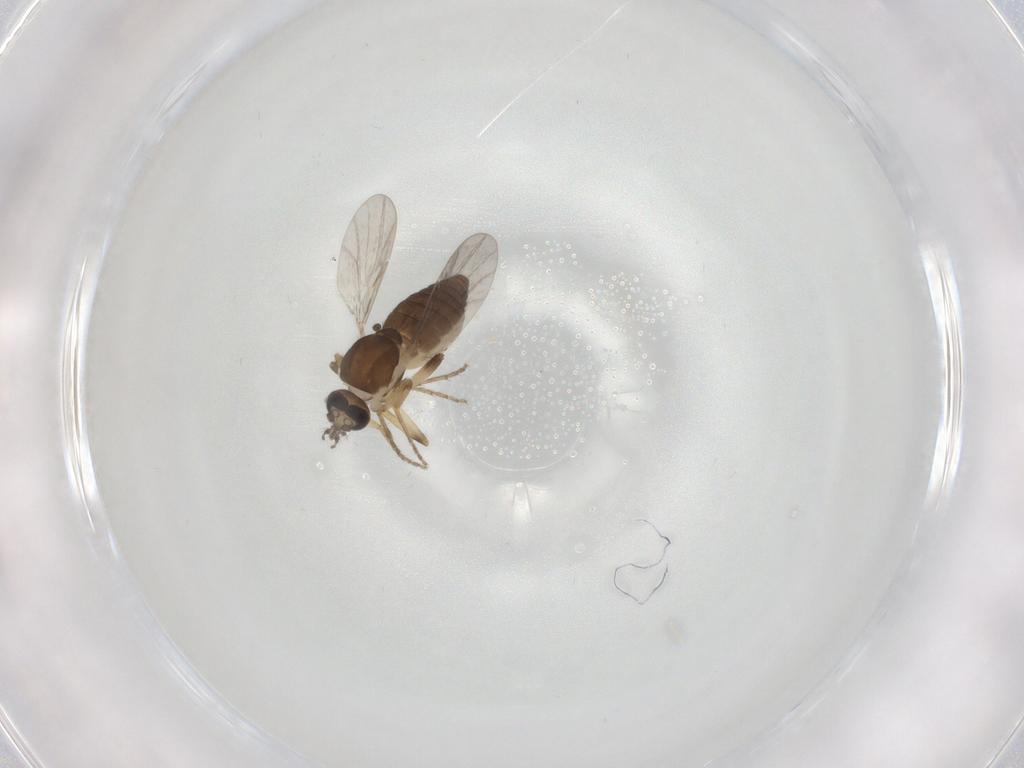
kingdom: Animalia
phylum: Arthropoda
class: Insecta
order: Diptera
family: Ceratopogonidae
